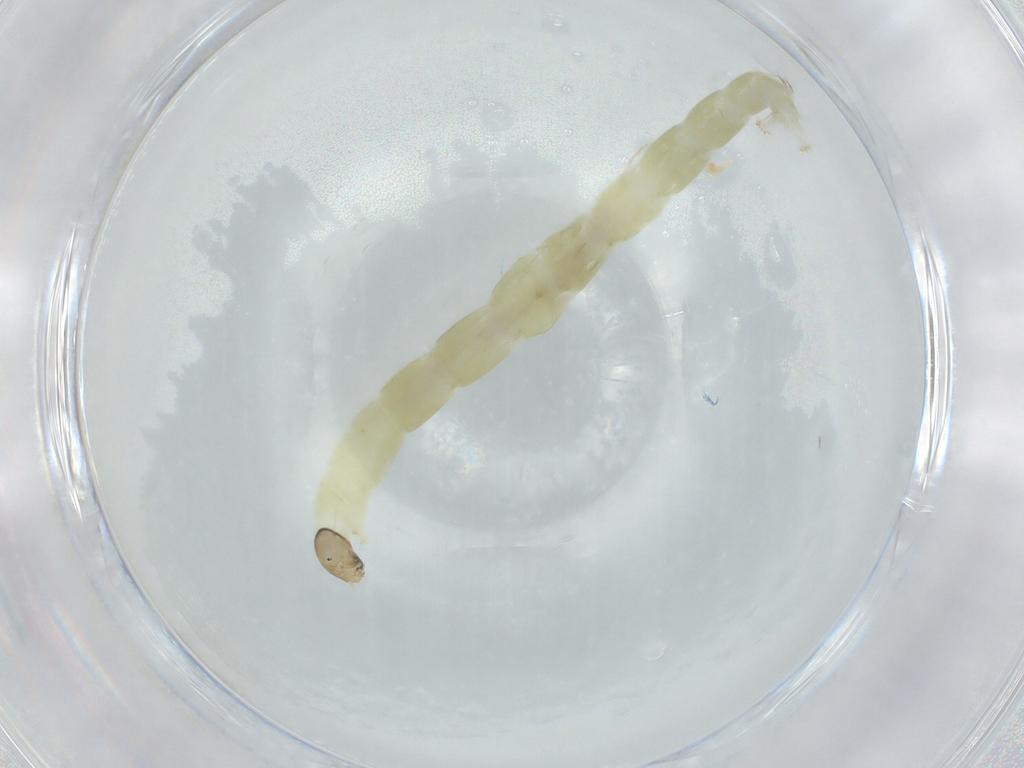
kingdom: Animalia
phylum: Arthropoda
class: Insecta
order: Diptera
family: Chironomidae
